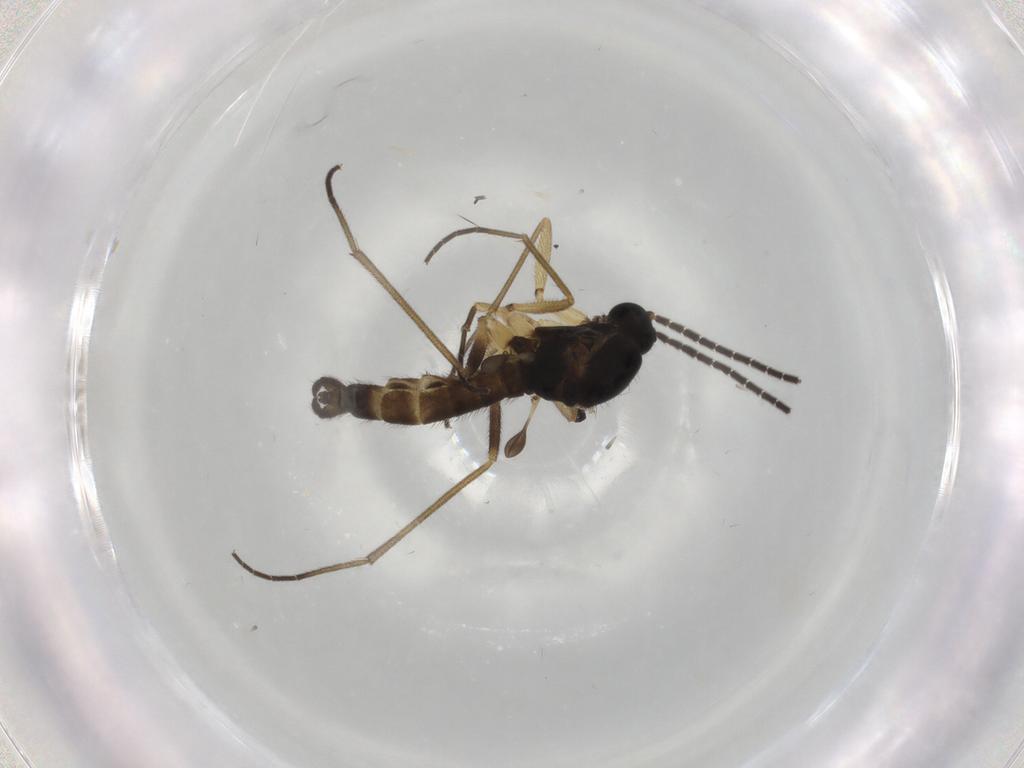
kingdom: Animalia
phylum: Arthropoda
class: Insecta
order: Diptera
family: Sciaridae
